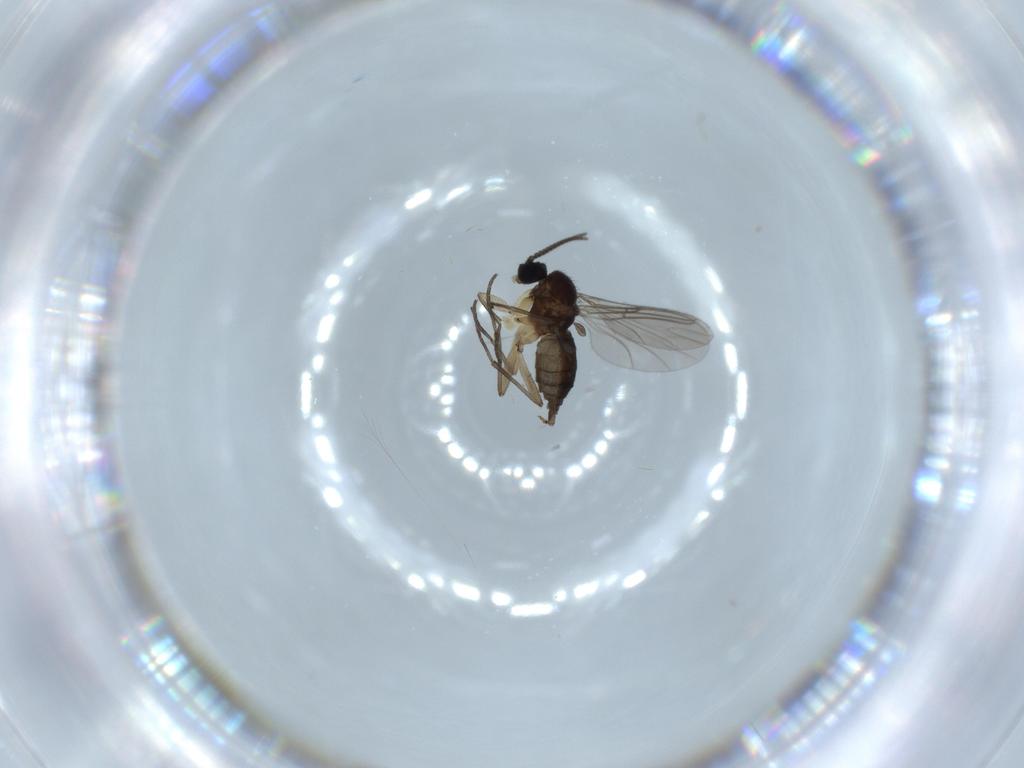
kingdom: Animalia
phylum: Arthropoda
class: Insecta
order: Diptera
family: Sciaridae
